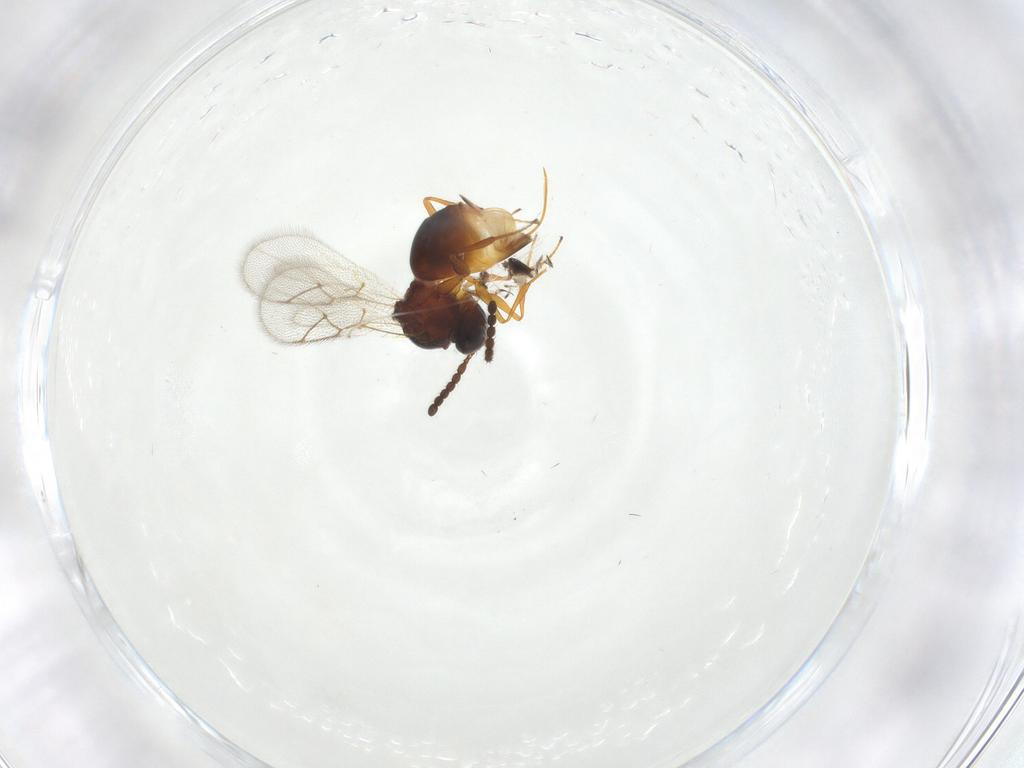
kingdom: Animalia
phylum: Arthropoda
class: Insecta
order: Hymenoptera
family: Figitidae
